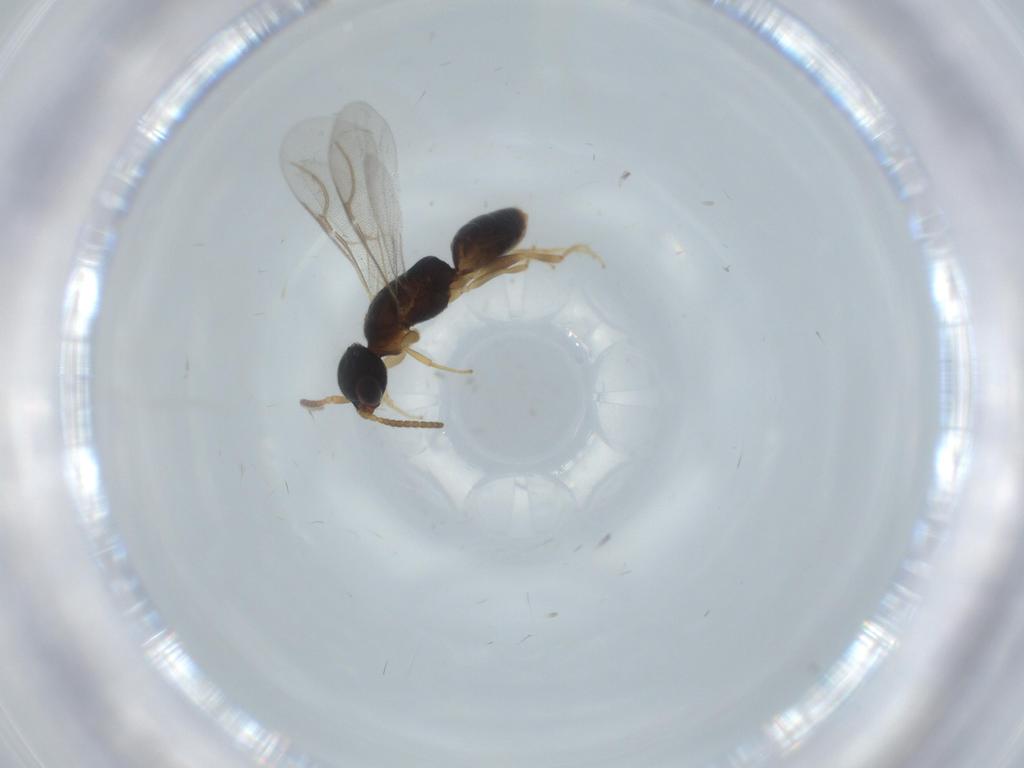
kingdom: Animalia
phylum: Arthropoda
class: Insecta
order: Hymenoptera
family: Bethylidae
